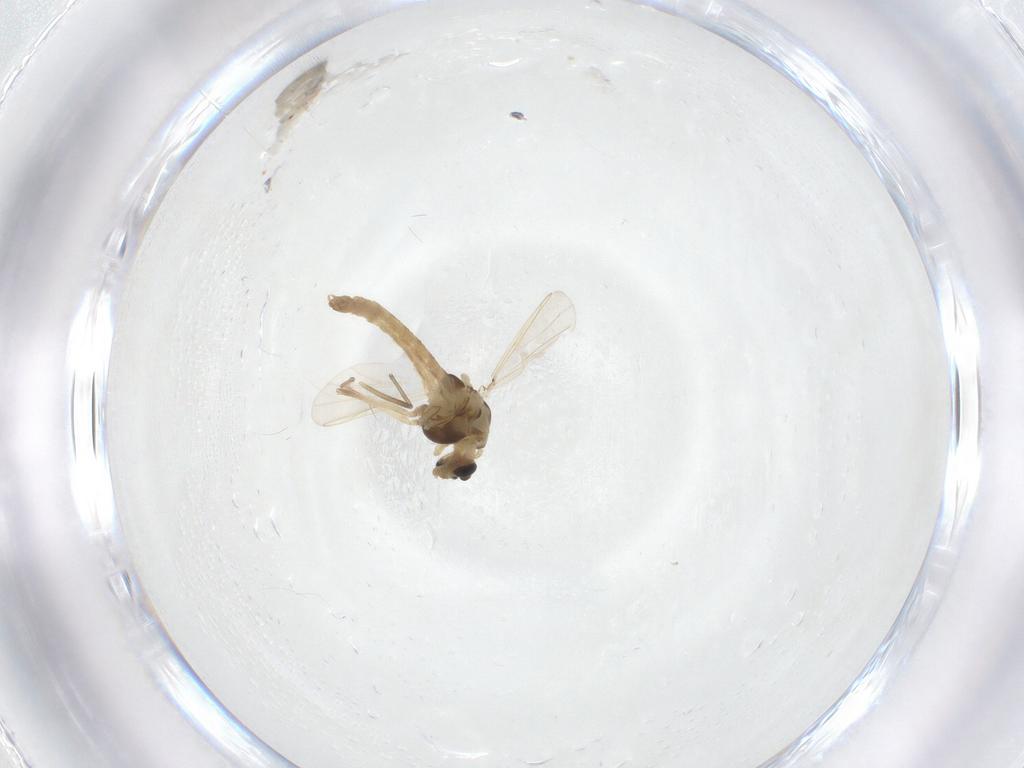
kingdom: Animalia
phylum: Arthropoda
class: Insecta
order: Diptera
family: Chironomidae
